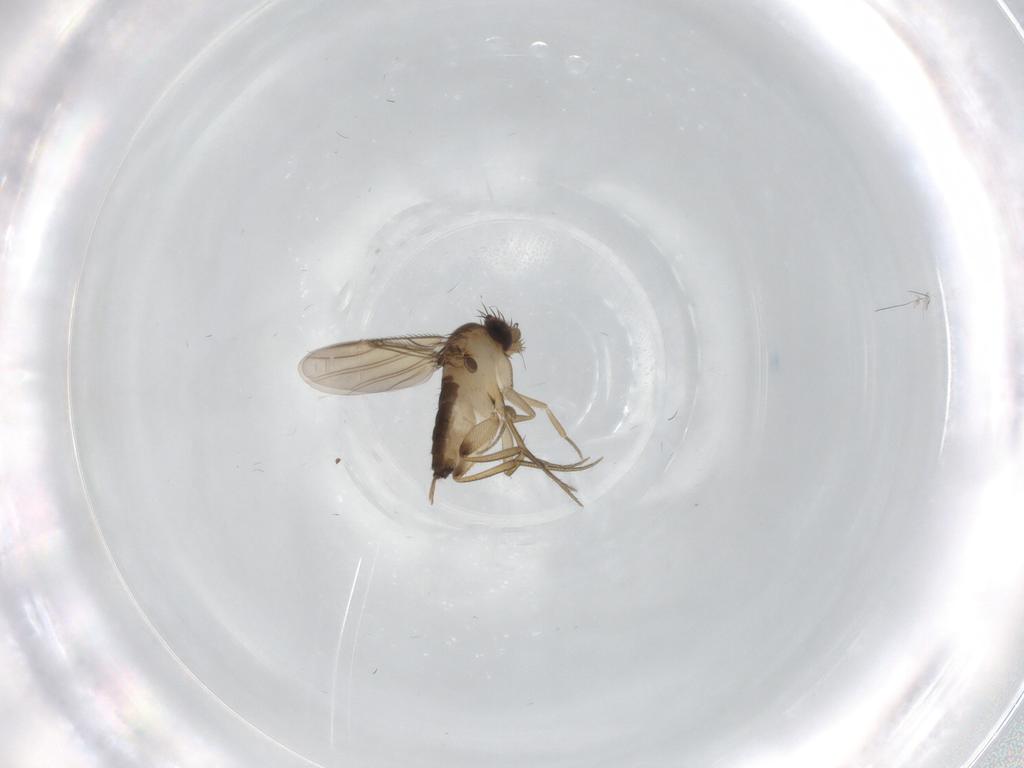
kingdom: Animalia
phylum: Arthropoda
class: Insecta
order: Diptera
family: Phoridae
